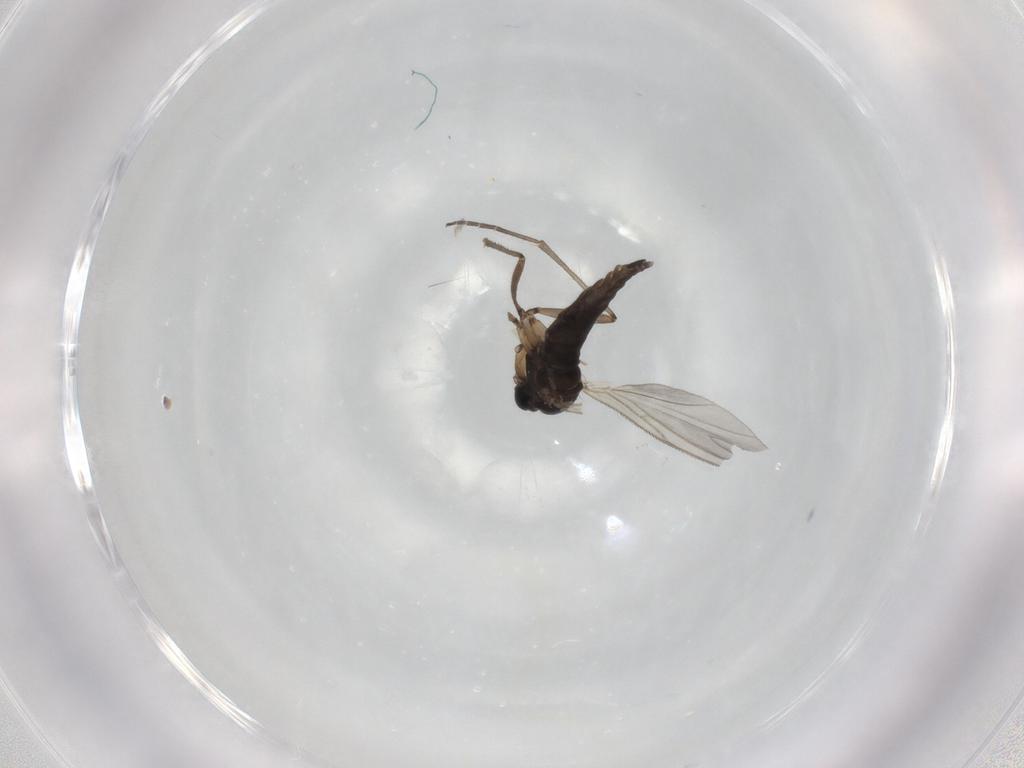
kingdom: Animalia
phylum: Arthropoda
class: Insecta
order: Diptera
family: Sciaridae
